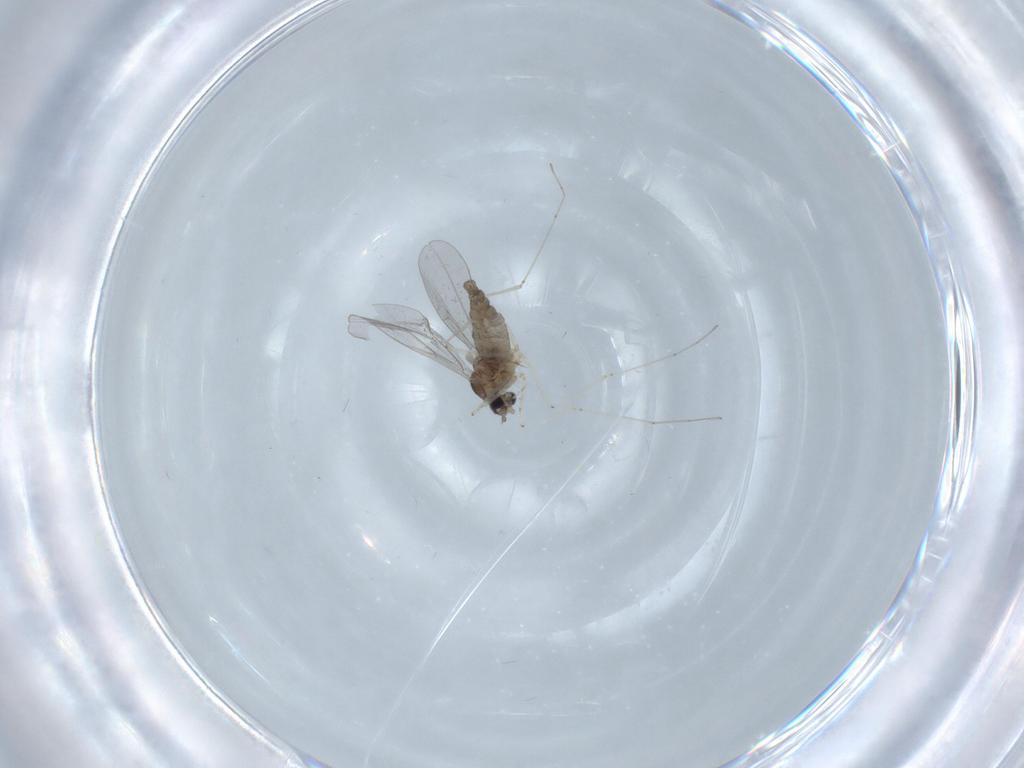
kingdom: Animalia
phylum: Arthropoda
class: Insecta
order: Diptera
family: Cecidomyiidae
